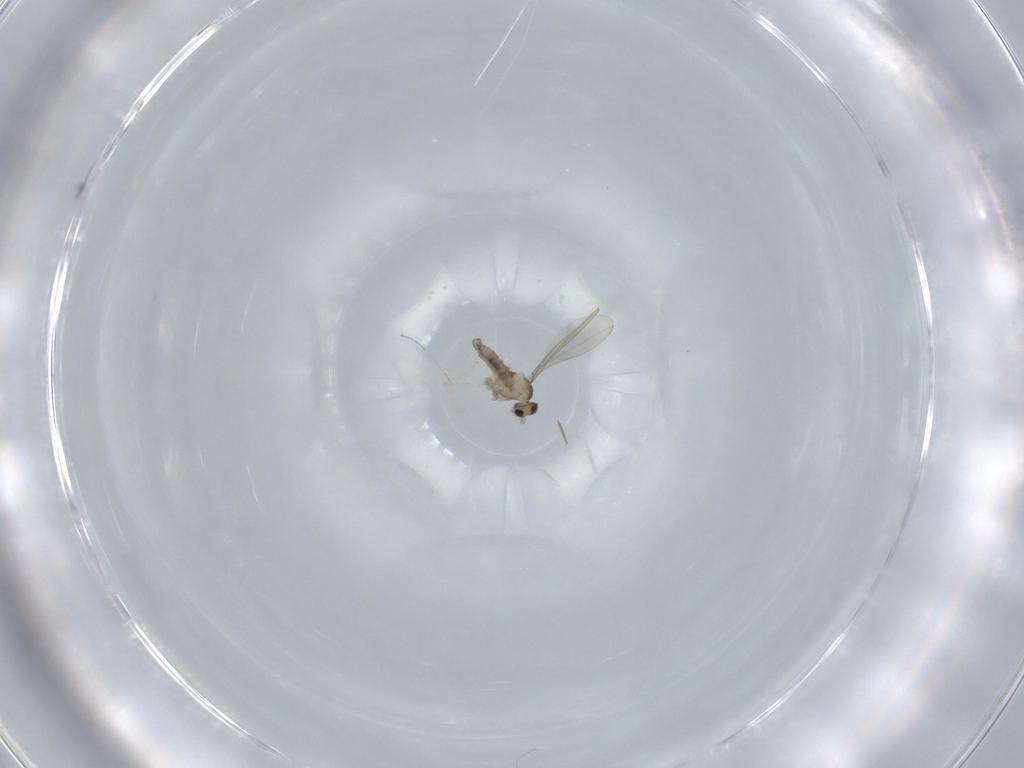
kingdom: Animalia
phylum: Arthropoda
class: Insecta
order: Diptera
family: Cecidomyiidae
